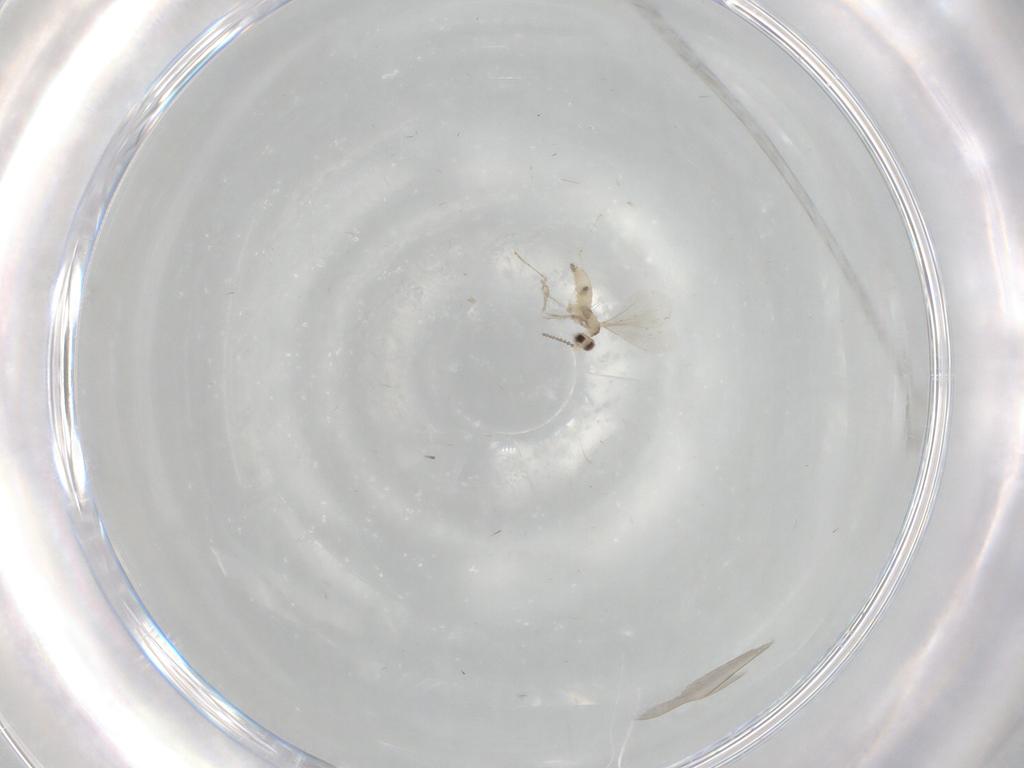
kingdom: Animalia
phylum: Arthropoda
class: Insecta
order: Diptera
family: Cecidomyiidae
